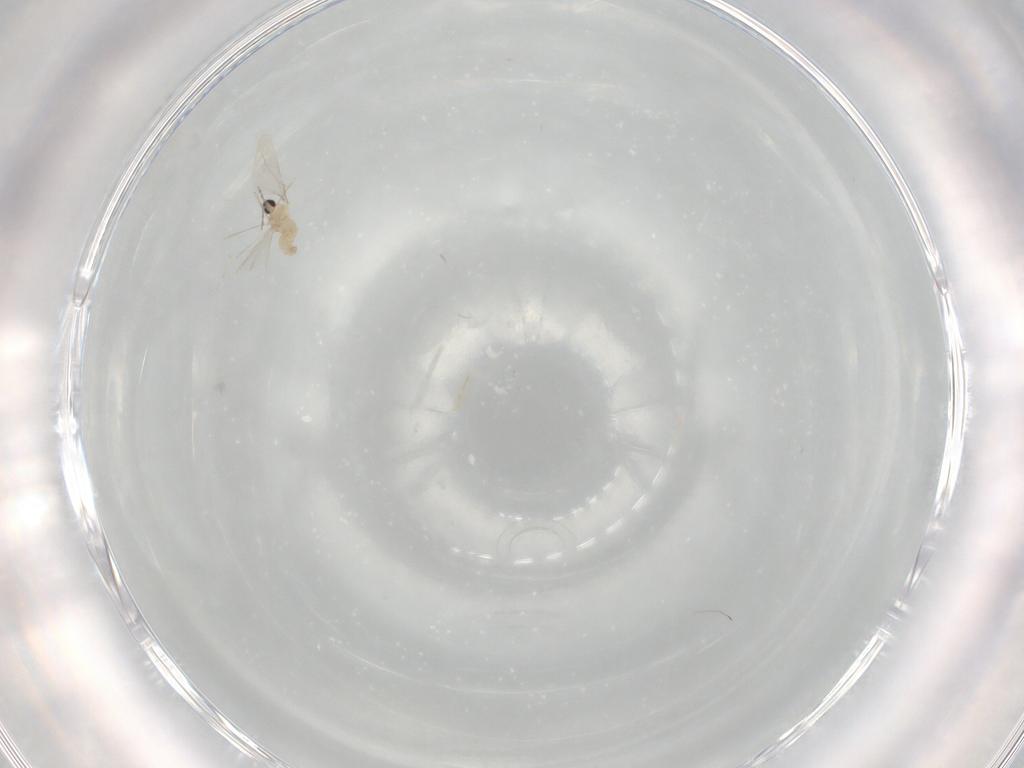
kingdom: Animalia
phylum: Arthropoda
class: Insecta
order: Diptera
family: Cecidomyiidae
